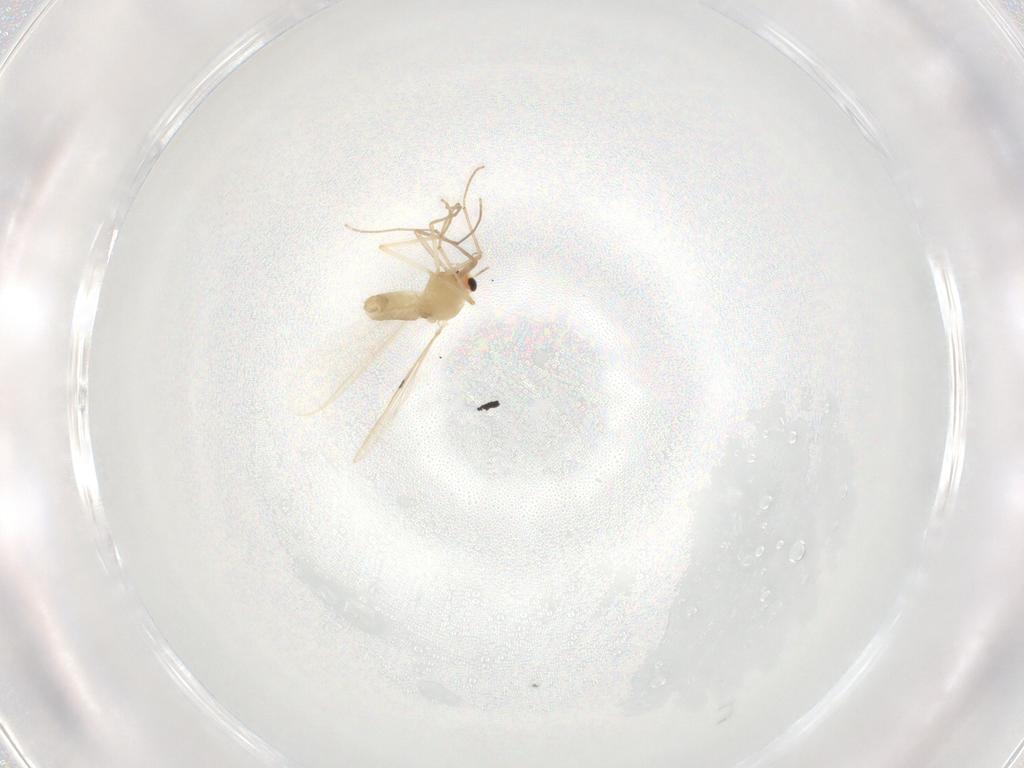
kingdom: Animalia
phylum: Arthropoda
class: Insecta
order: Diptera
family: Chironomidae
